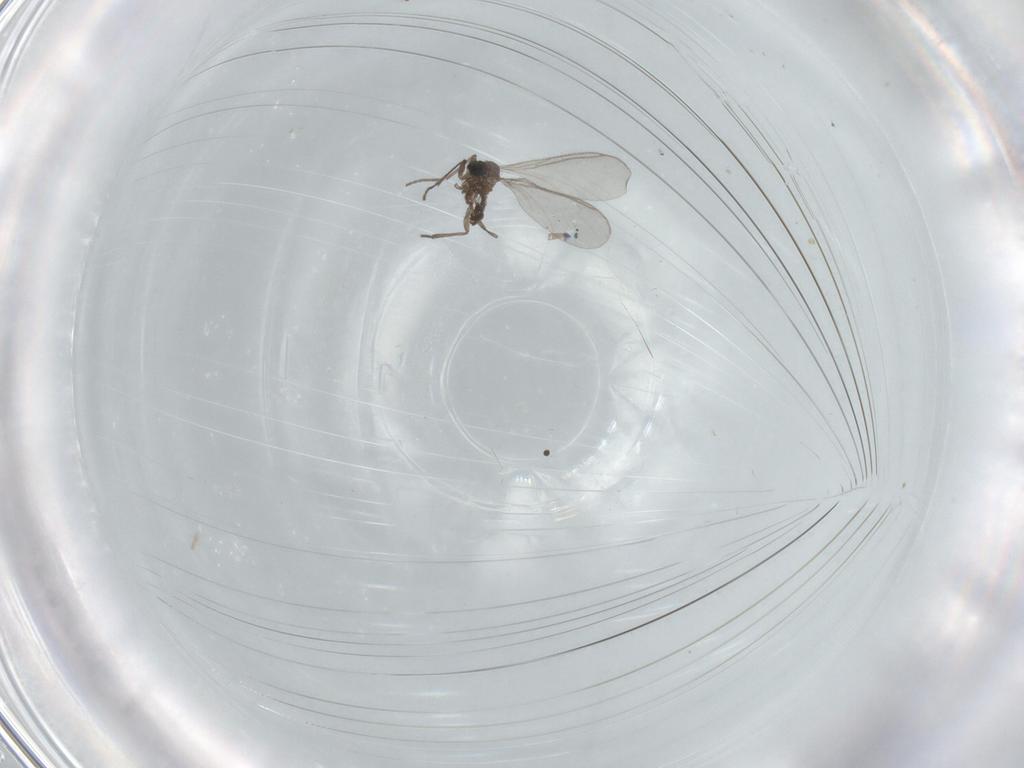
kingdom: Animalia
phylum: Arthropoda
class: Insecta
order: Diptera
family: Sciaridae
